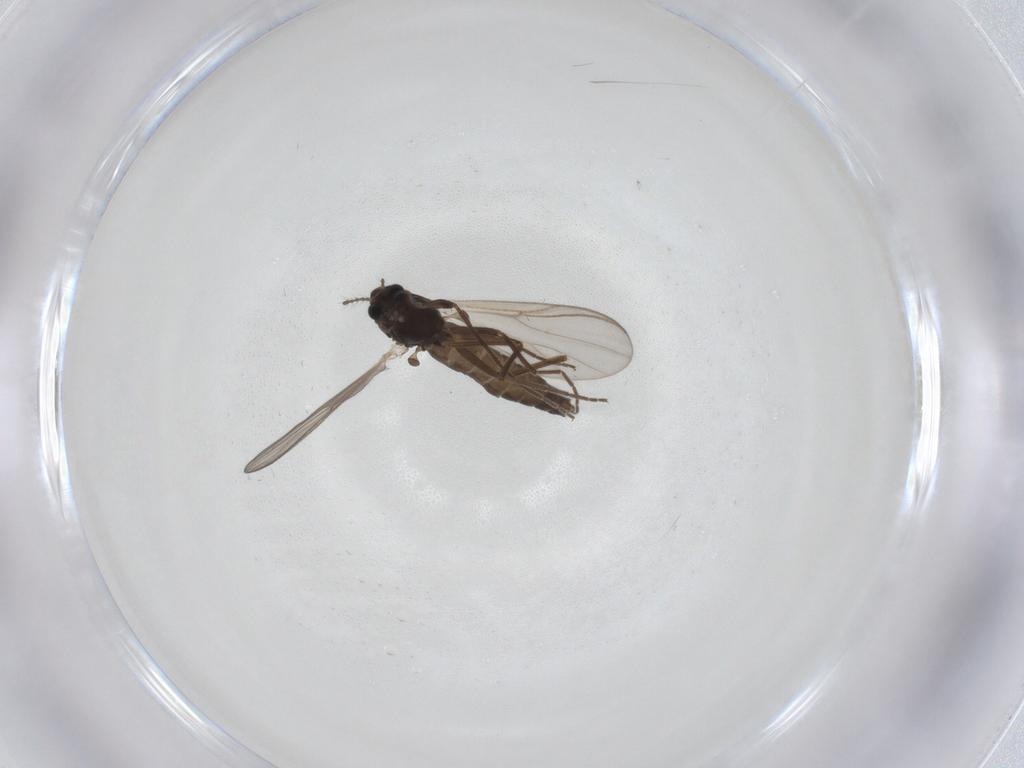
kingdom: Animalia
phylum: Arthropoda
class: Insecta
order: Diptera
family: Chironomidae
